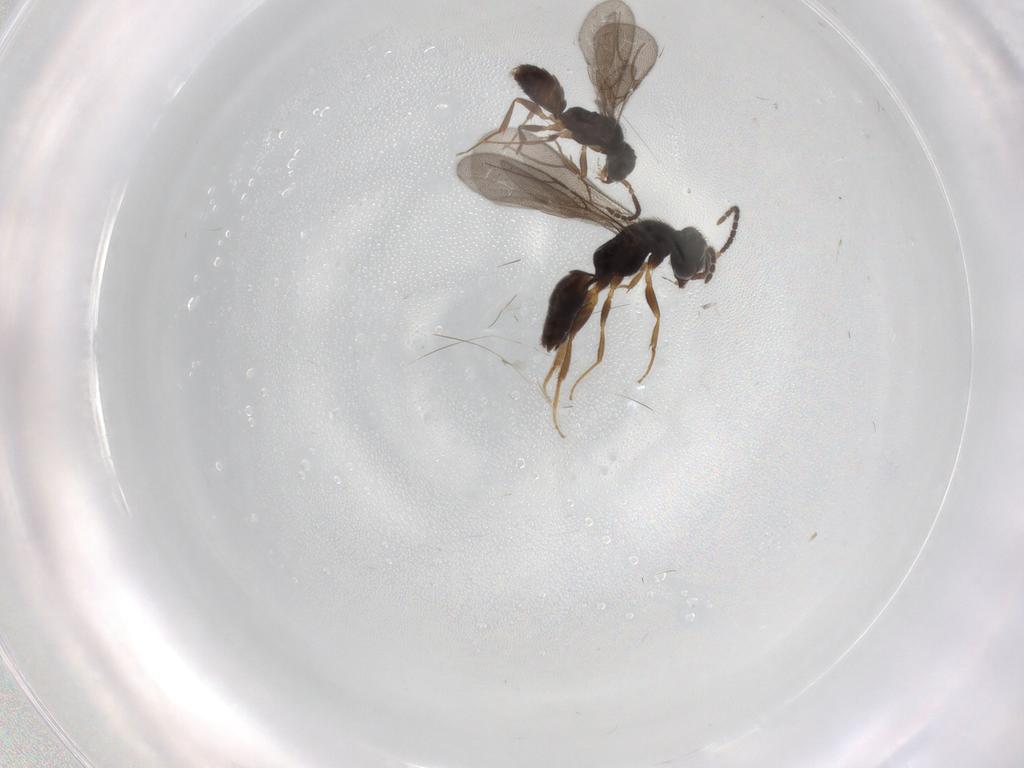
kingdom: Animalia
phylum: Arthropoda
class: Insecta
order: Hymenoptera
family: Bethylidae
